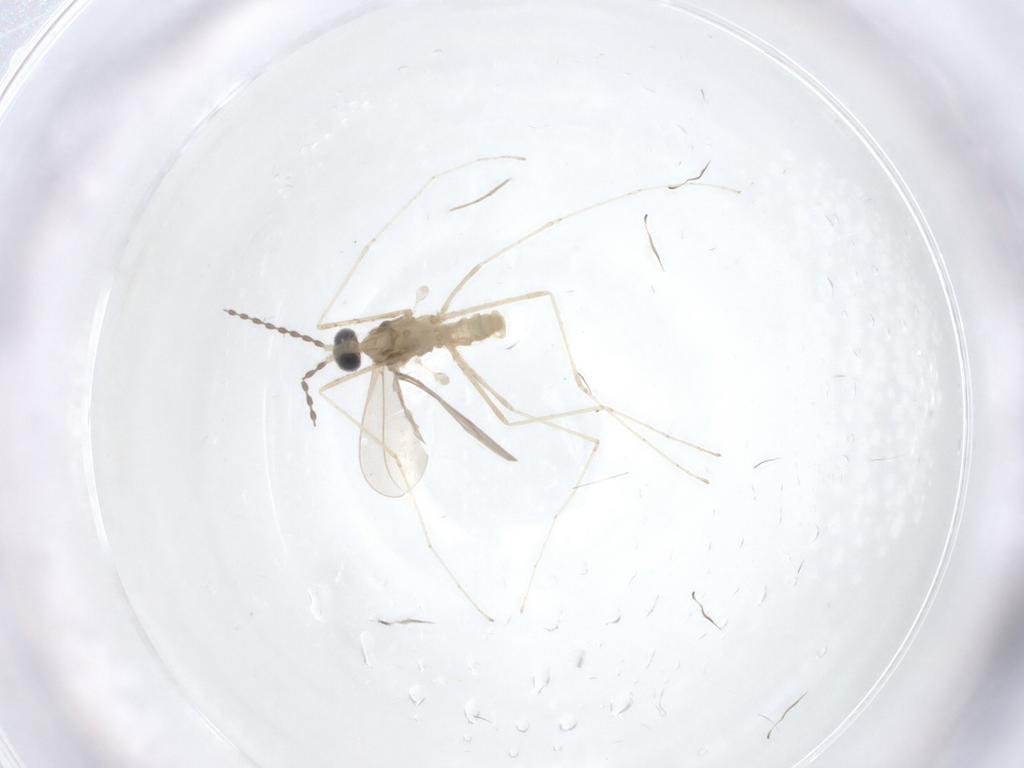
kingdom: Animalia
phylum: Arthropoda
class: Insecta
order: Diptera
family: Cecidomyiidae
